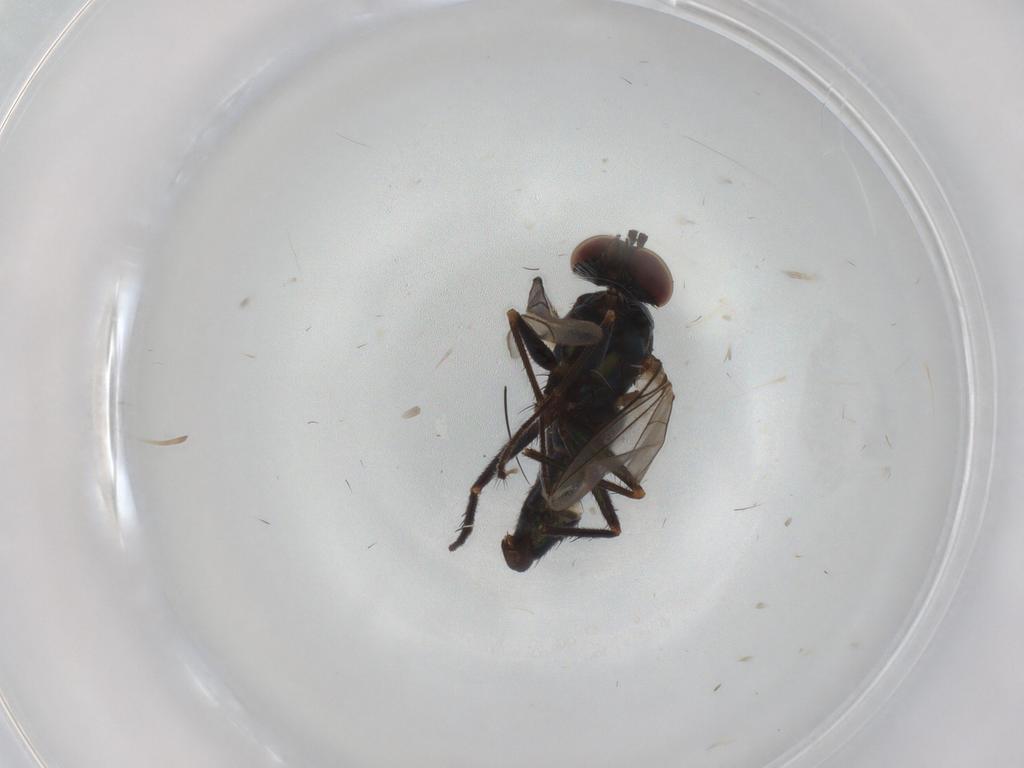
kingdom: Animalia
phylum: Arthropoda
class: Insecta
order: Diptera
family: Dolichopodidae
